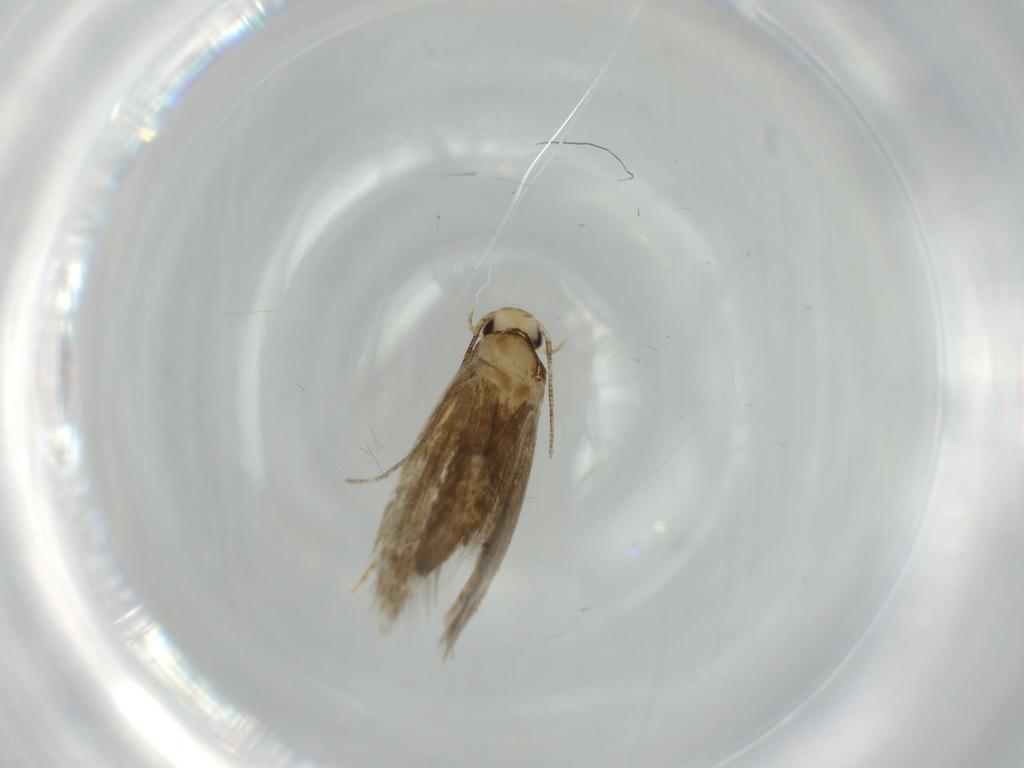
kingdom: Animalia
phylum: Arthropoda
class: Insecta
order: Lepidoptera
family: Tineidae
